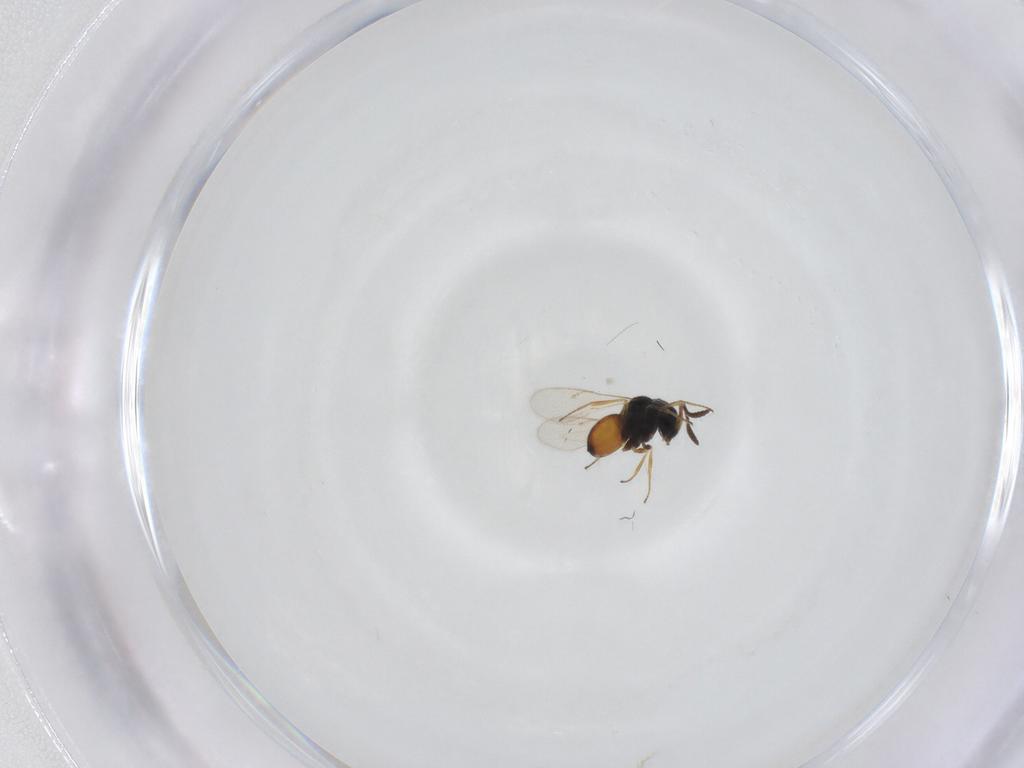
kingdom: Animalia
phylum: Arthropoda
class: Insecta
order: Hymenoptera
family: Scelionidae
